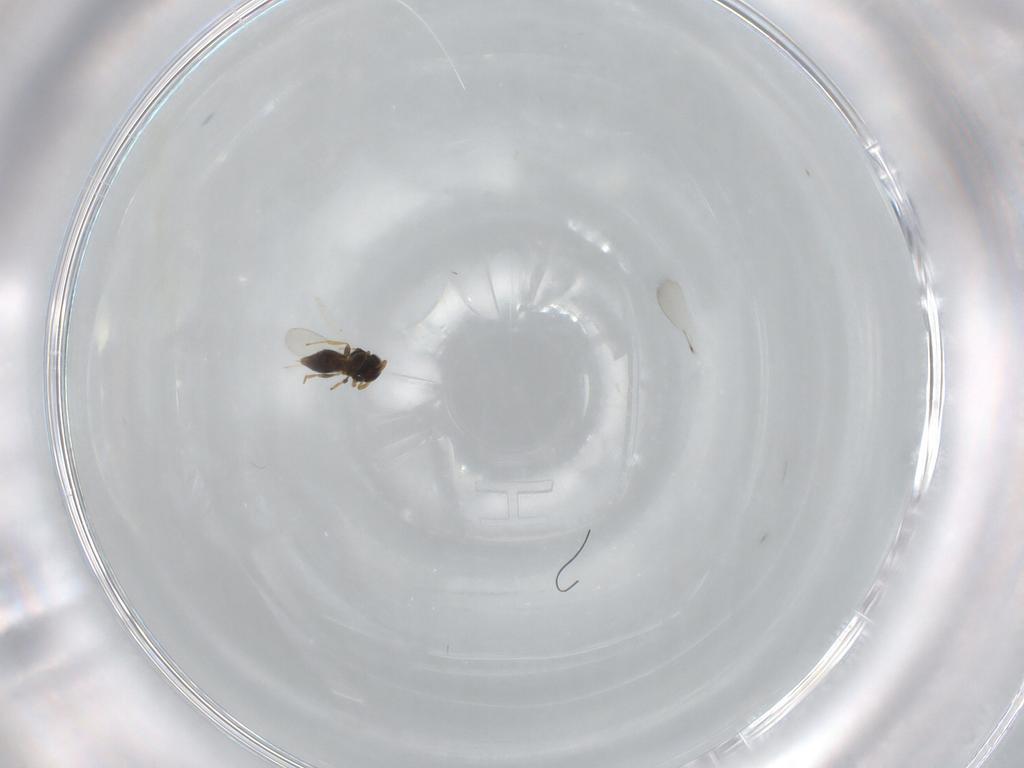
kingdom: Animalia
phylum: Arthropoda
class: Insecta
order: Hymenoptera
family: Platygastridae
